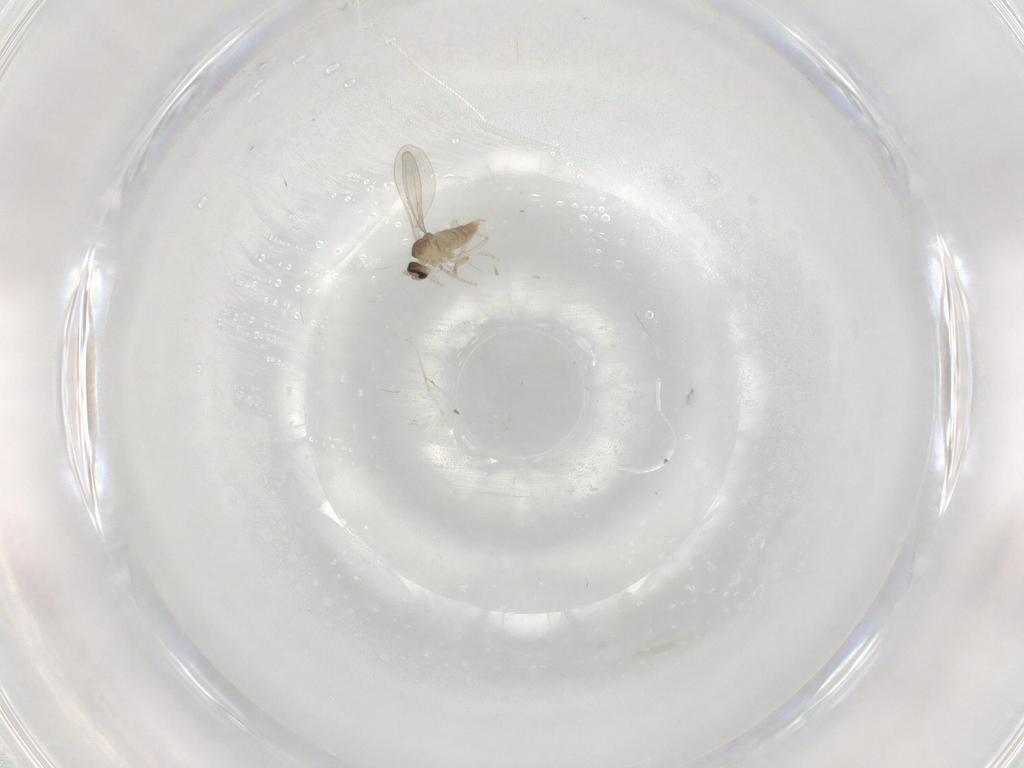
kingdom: Animalia
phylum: Arthropoda
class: Insecta
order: Diptera
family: Cecidomyiidae
